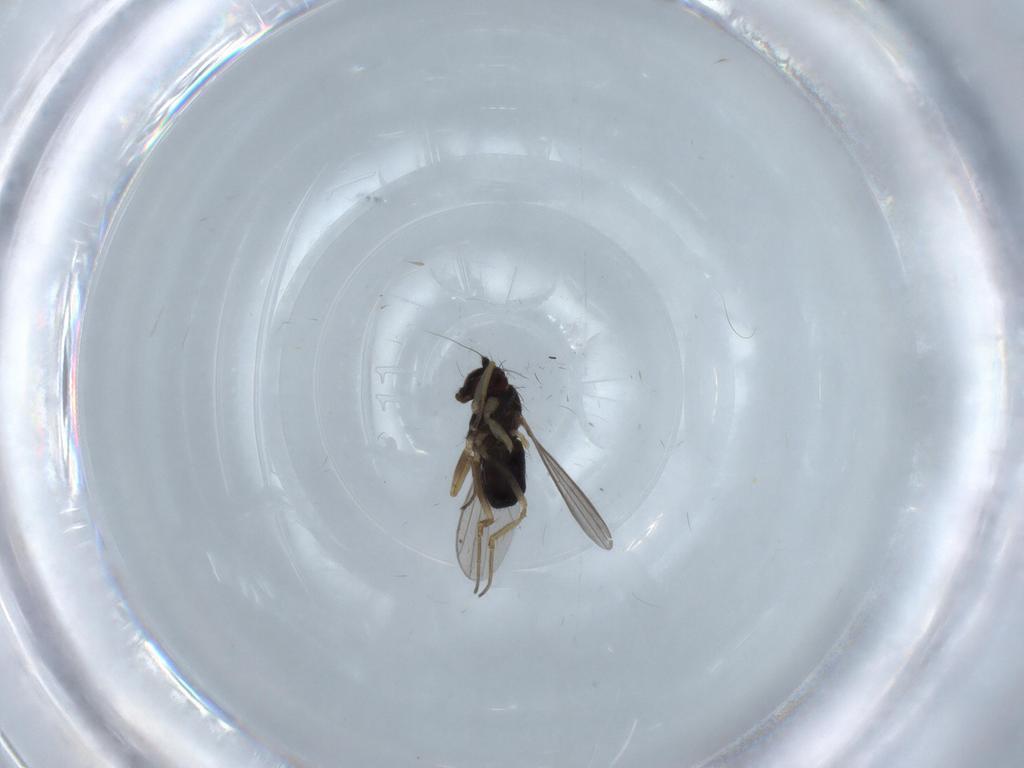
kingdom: Animalia
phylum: Arthropoda
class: Insecta
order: Diptera
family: Dolichopodidae
